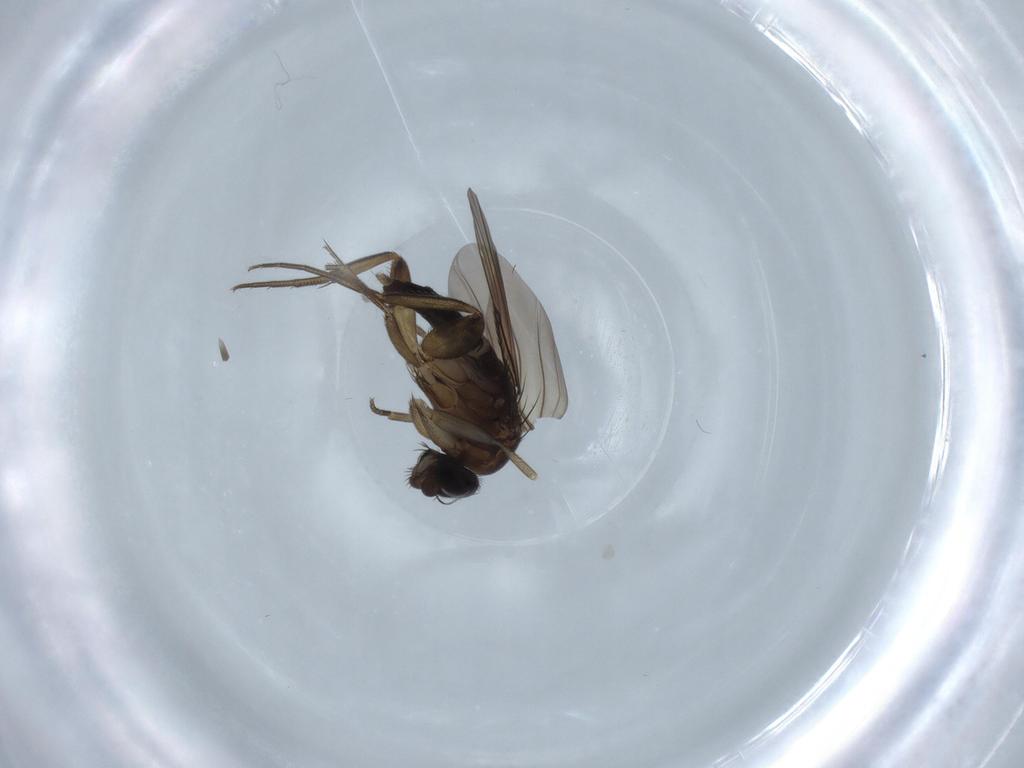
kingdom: Animalia
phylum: Arthropoda
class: Insecta
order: Diptera
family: Phoridae
